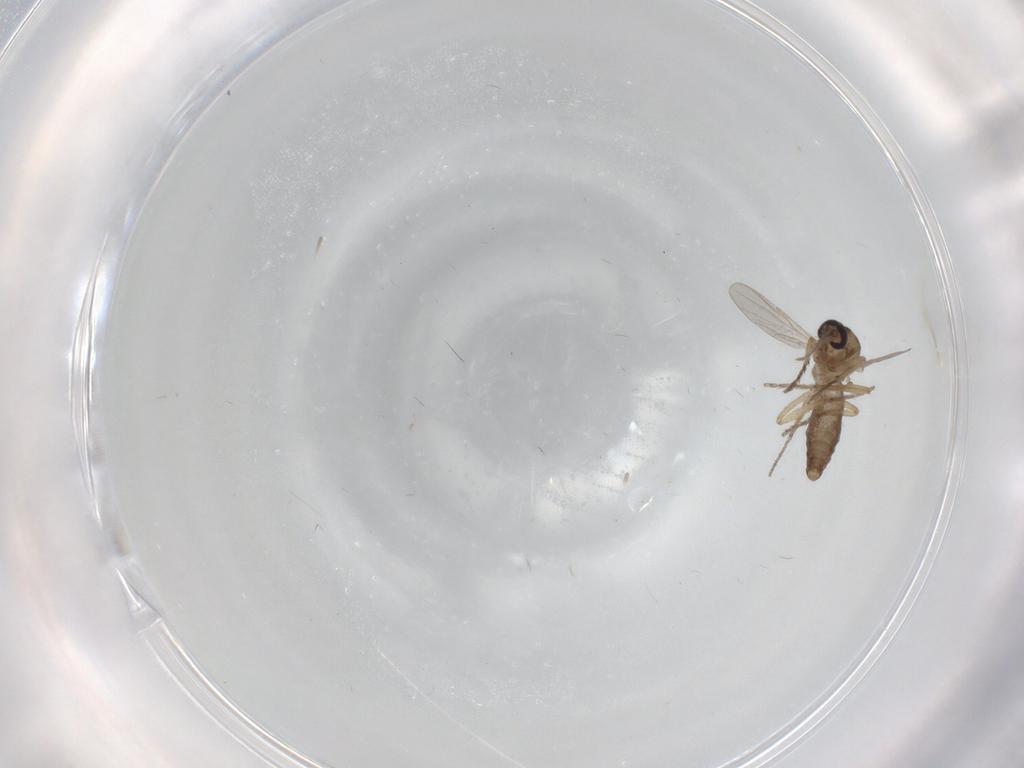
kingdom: Animalia
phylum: Arthropoda
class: Insecta
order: Diptera
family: Ceratopogonidae
